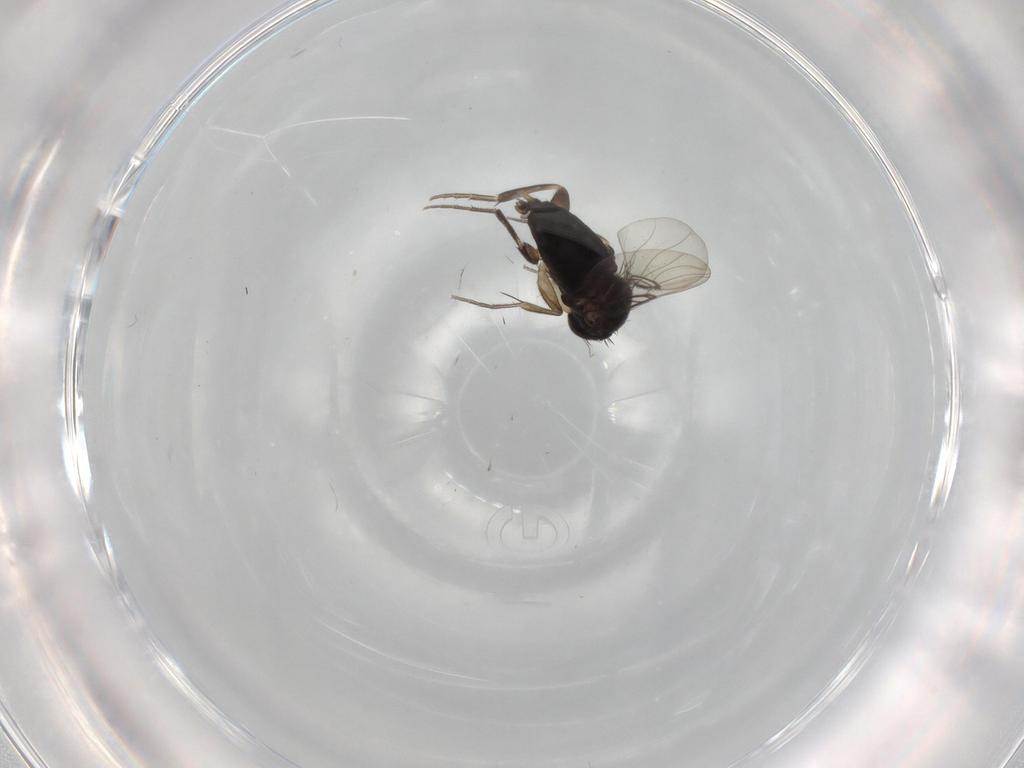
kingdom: Animalia
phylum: Arthropoda
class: Insecta
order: Diptera
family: Phoridae
